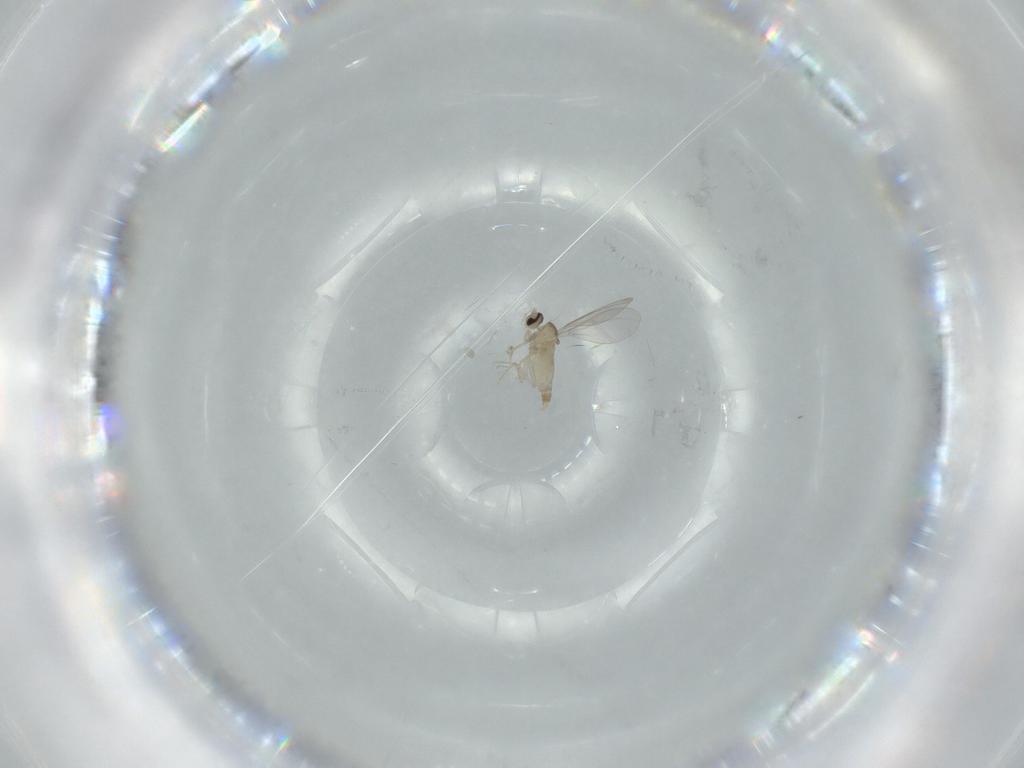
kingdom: Animalia
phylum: Arthropoda
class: Insecta
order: Diptera
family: Cecidomyiidae
